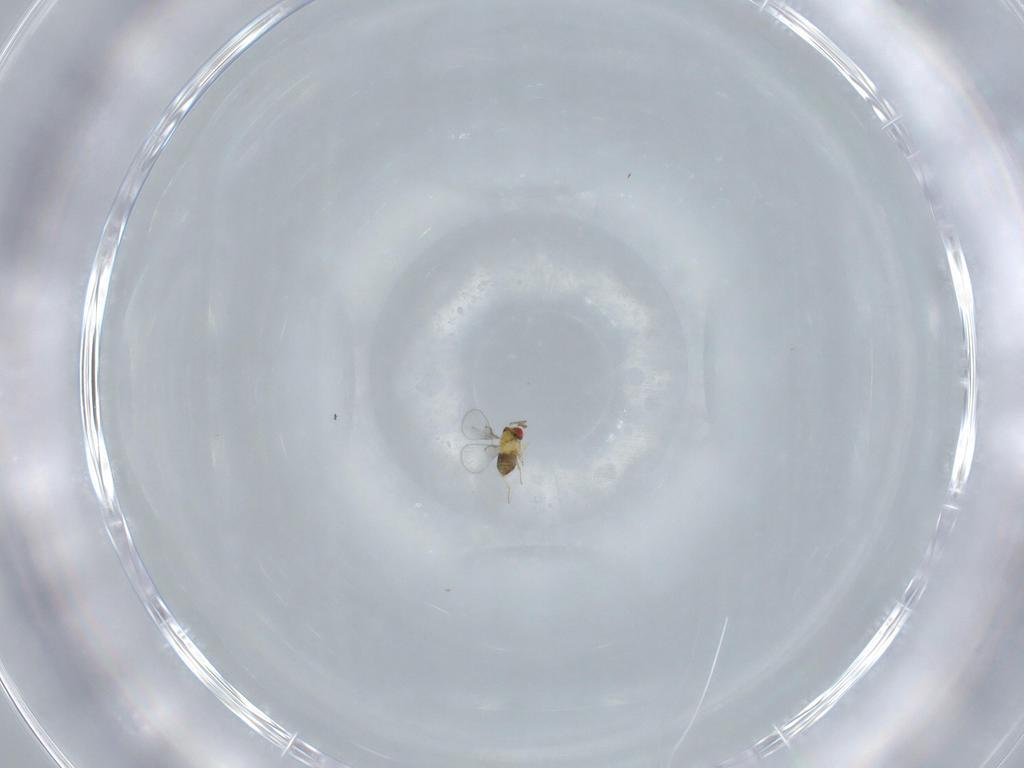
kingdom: Animalia
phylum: Arthropoda
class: Insecta
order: Hymenoptera
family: Trichogrammatidae
